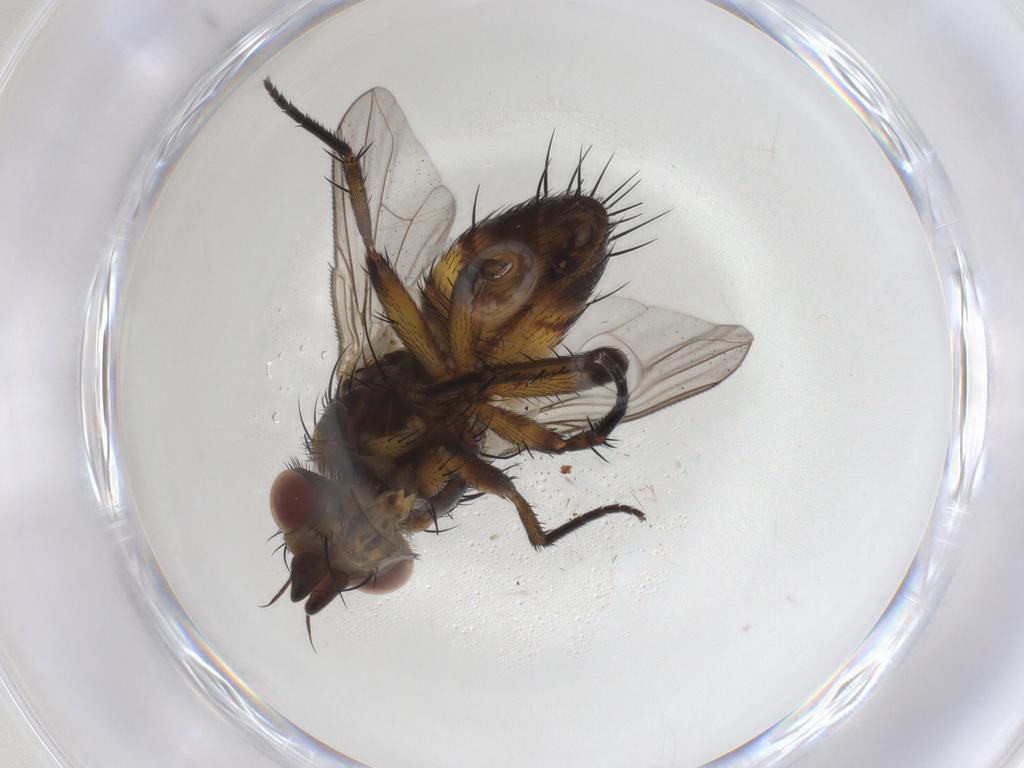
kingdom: Animalia
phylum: Arthropoda
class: Insecta
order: Diptera
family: Tachinidae
